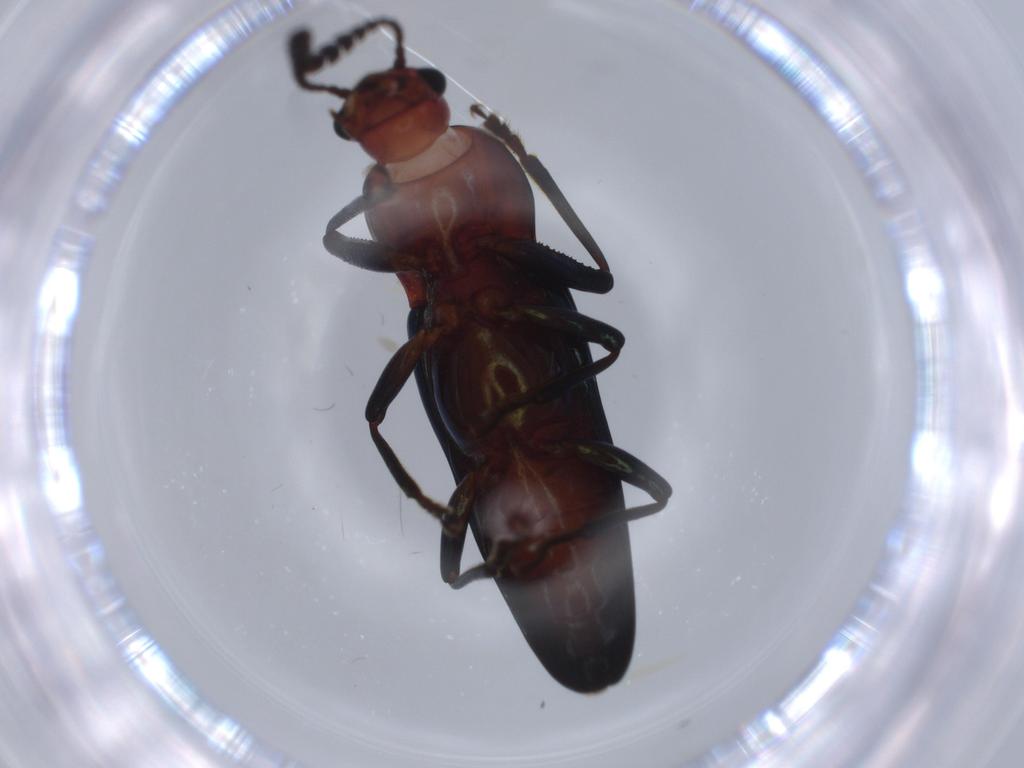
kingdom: Animalia
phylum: Arthropoda
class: Insecta
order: Coleoptera
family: Erotylidae
